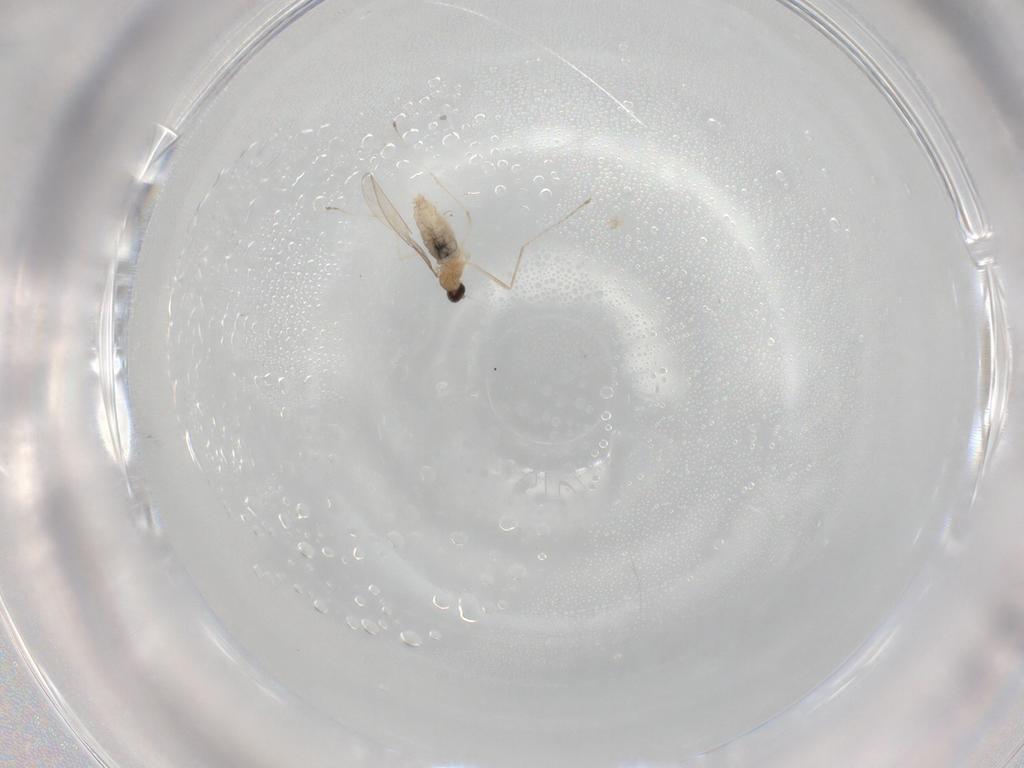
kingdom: Animalia
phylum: Arthropoda
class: Insecta
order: Diptera
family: Cecidomyiidae
